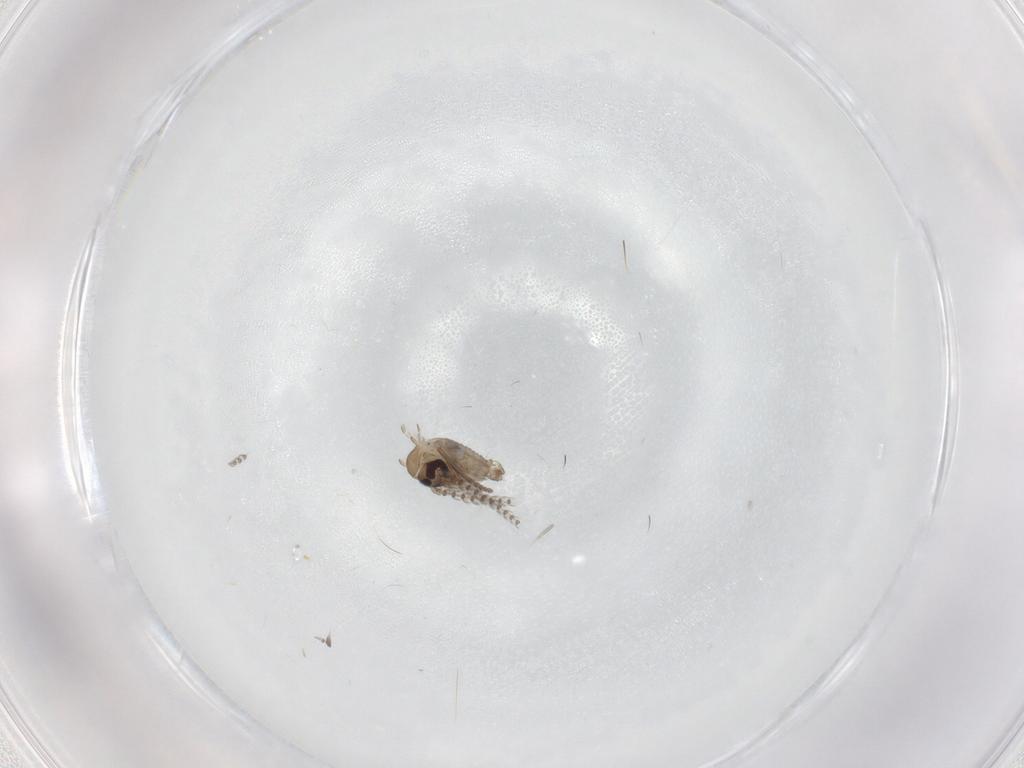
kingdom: Animalia
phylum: Arthropoda
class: Insecta
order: Diptera
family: Psychodidae
